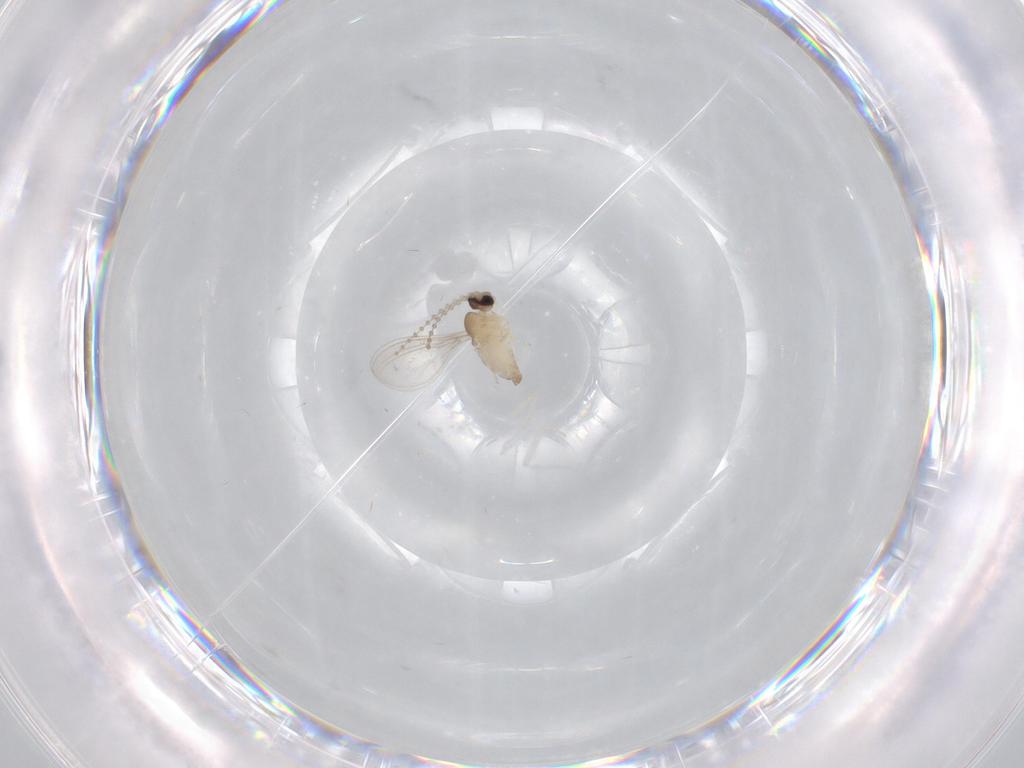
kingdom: Animalia
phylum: Arthropoda
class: Insecta
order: Diptera
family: Cecidomyiidae
